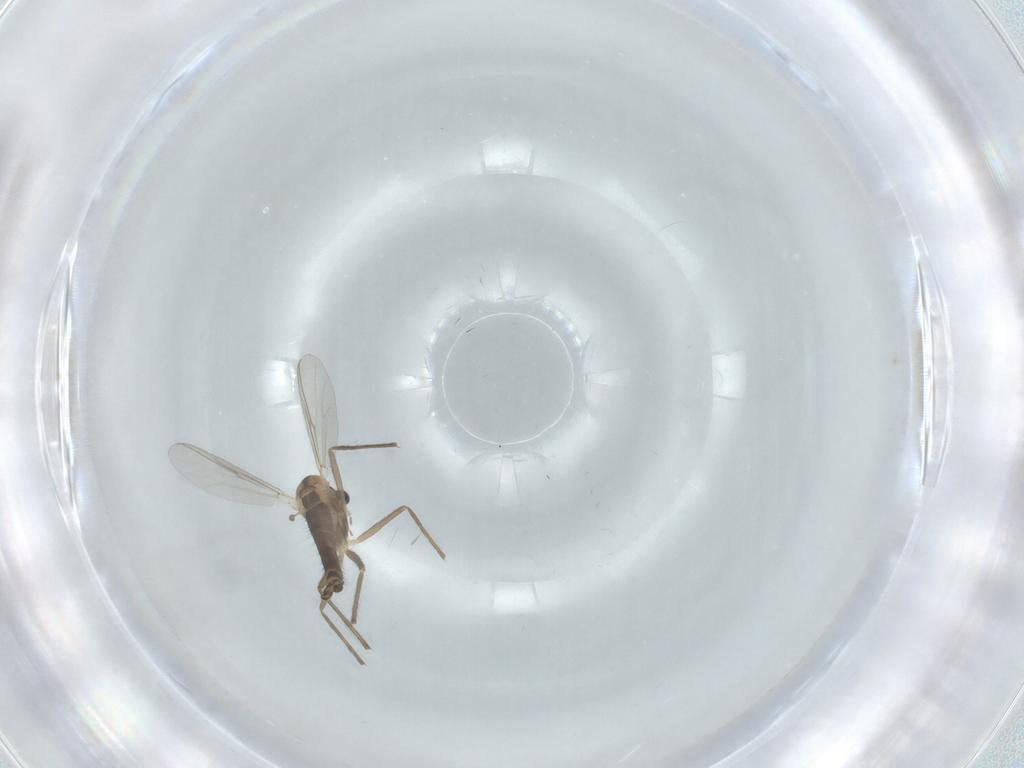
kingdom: Animalia
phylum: Arthropoda
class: Insecta
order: Diptera
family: Chironomidae
